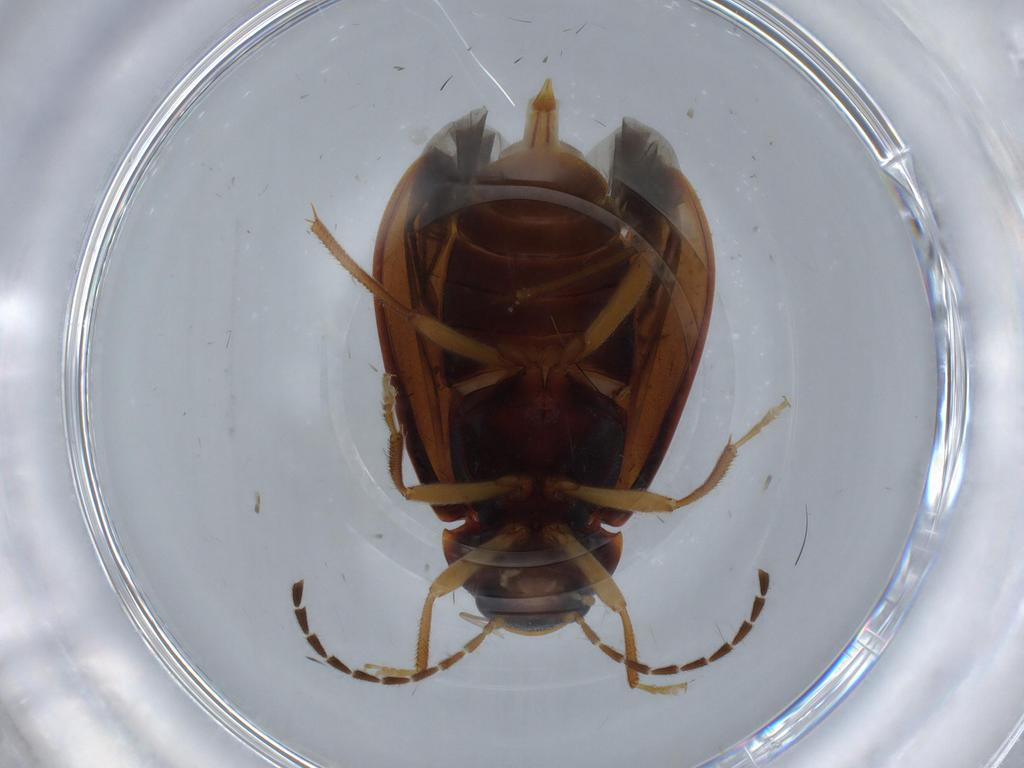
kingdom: Animalia
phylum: Arthropoda
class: Insecta
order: Coleoptera
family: Ptilodactylidae
